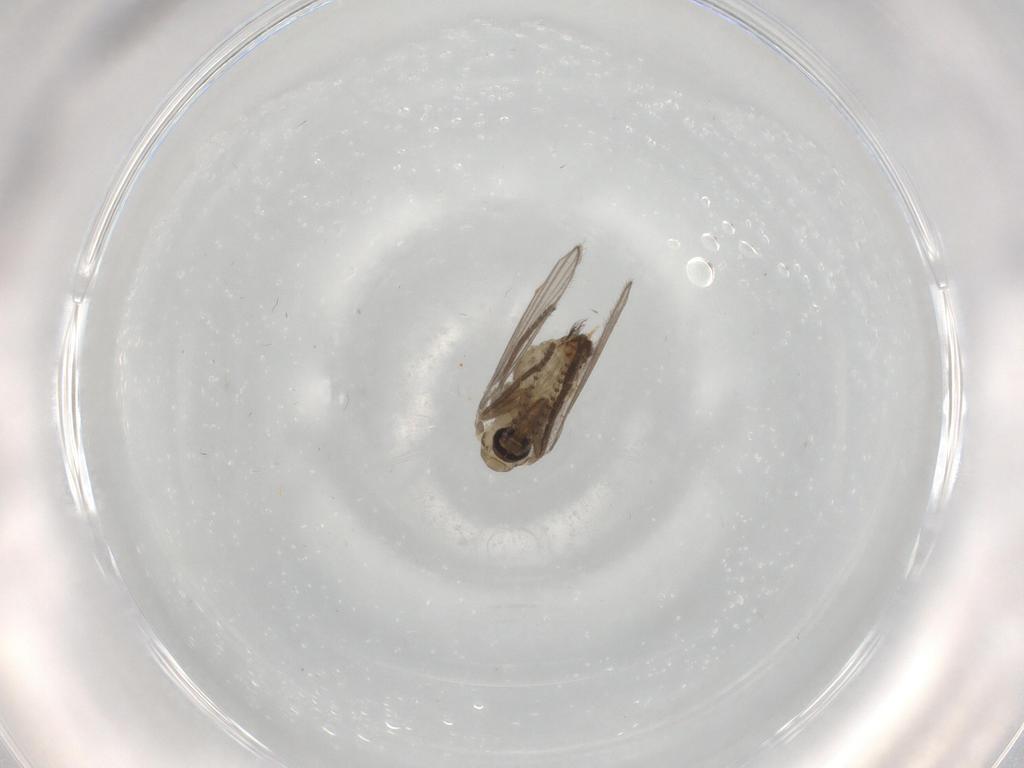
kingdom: Animalia
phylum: Arthropoda
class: Insecta
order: Diptera
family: Psychodidae
